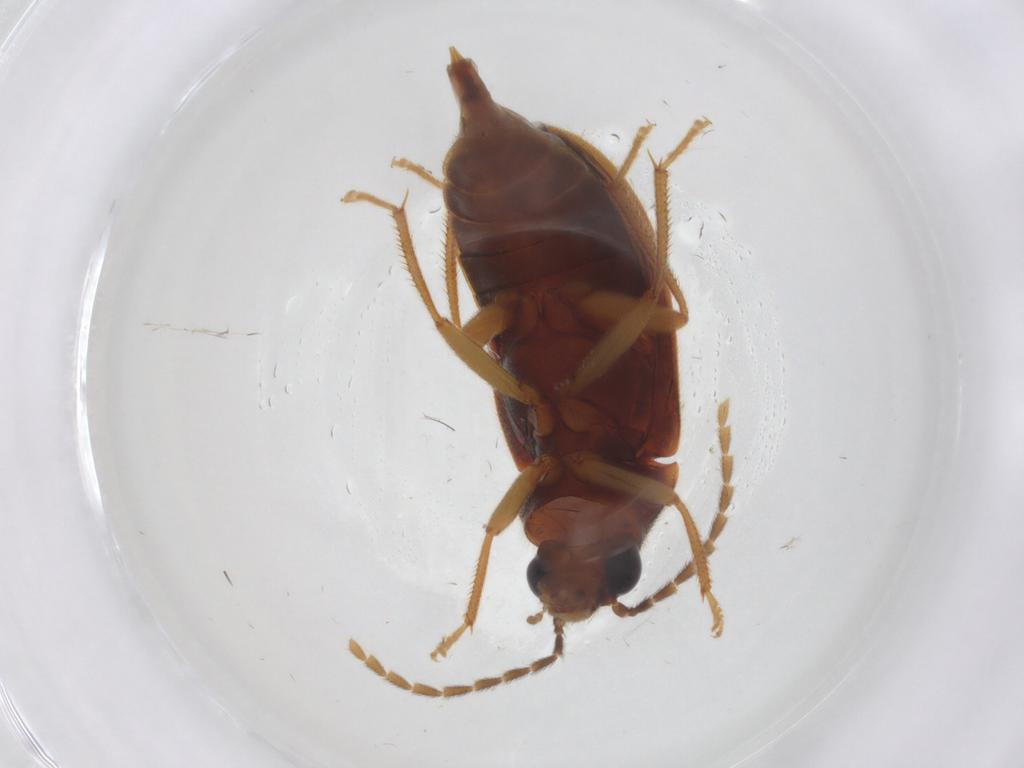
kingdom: Animalia
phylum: Arthropoda
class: Insecta
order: Coleoptera
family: Ptilodactylidae
